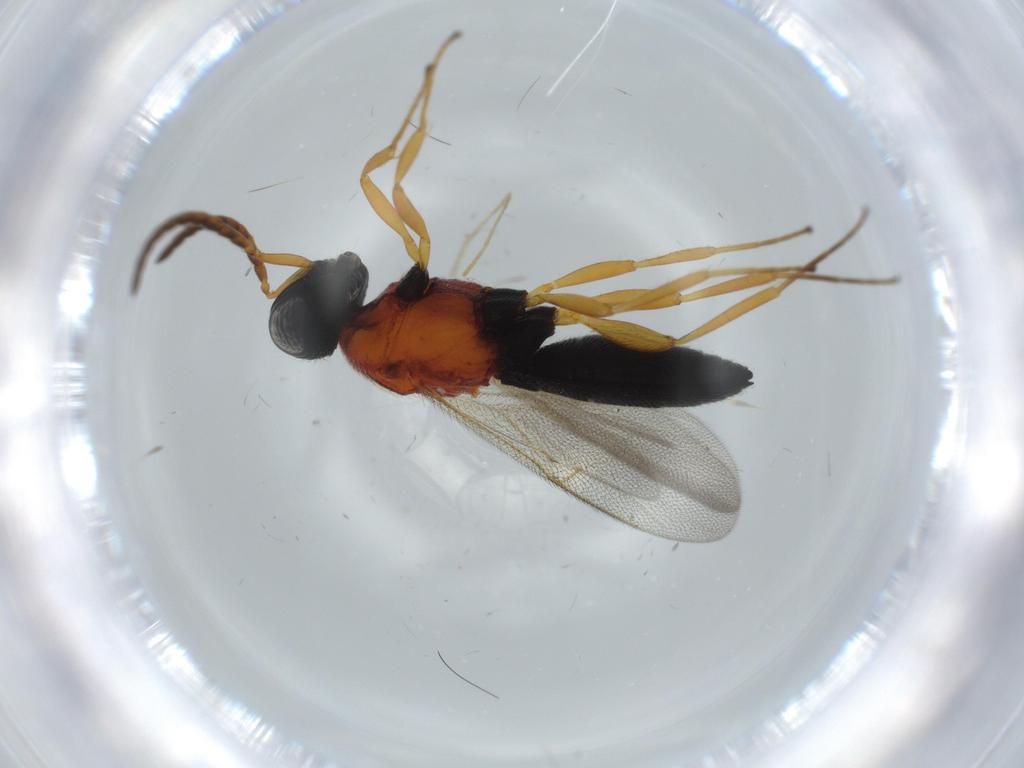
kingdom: Animalia
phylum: Arthropoda
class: Insecta
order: Hymenoptera
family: Scelionidae
